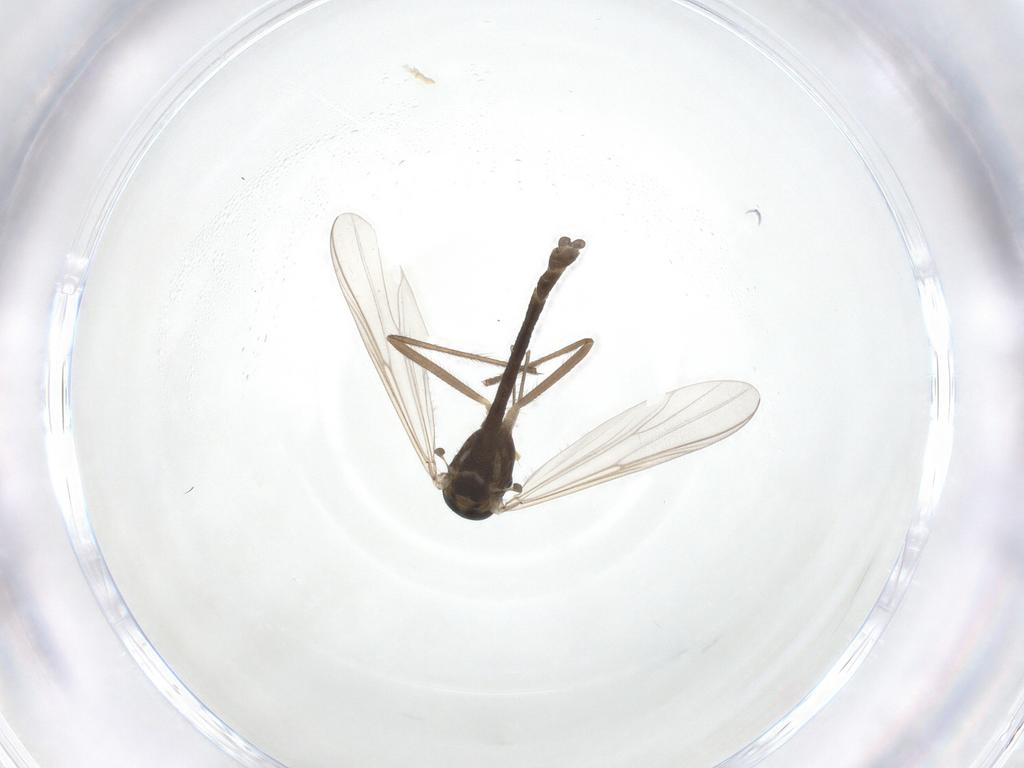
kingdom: Animalia
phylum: Arthropoda
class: Insecta
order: Diptera
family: Chironomidae
